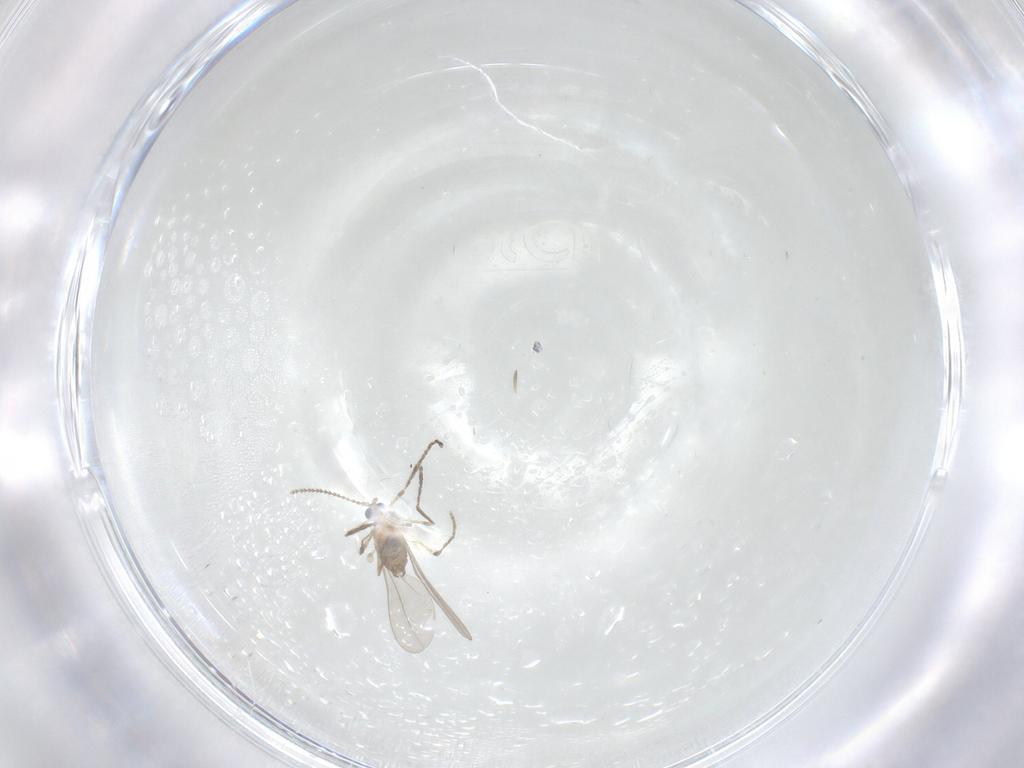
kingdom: Animalia
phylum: Arthropoda
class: Insecta
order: Diptera
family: Cecidomyiidae
